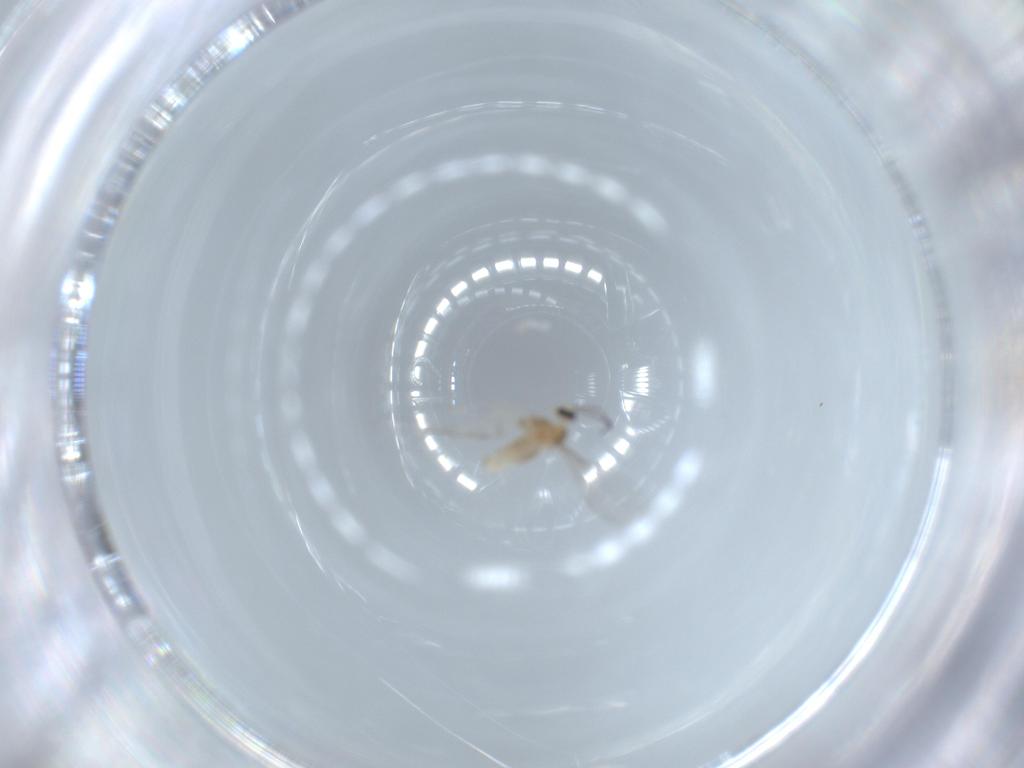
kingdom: Animalia
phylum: Arthropoda
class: Insecta
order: Diptera
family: Cecidomyiidae
